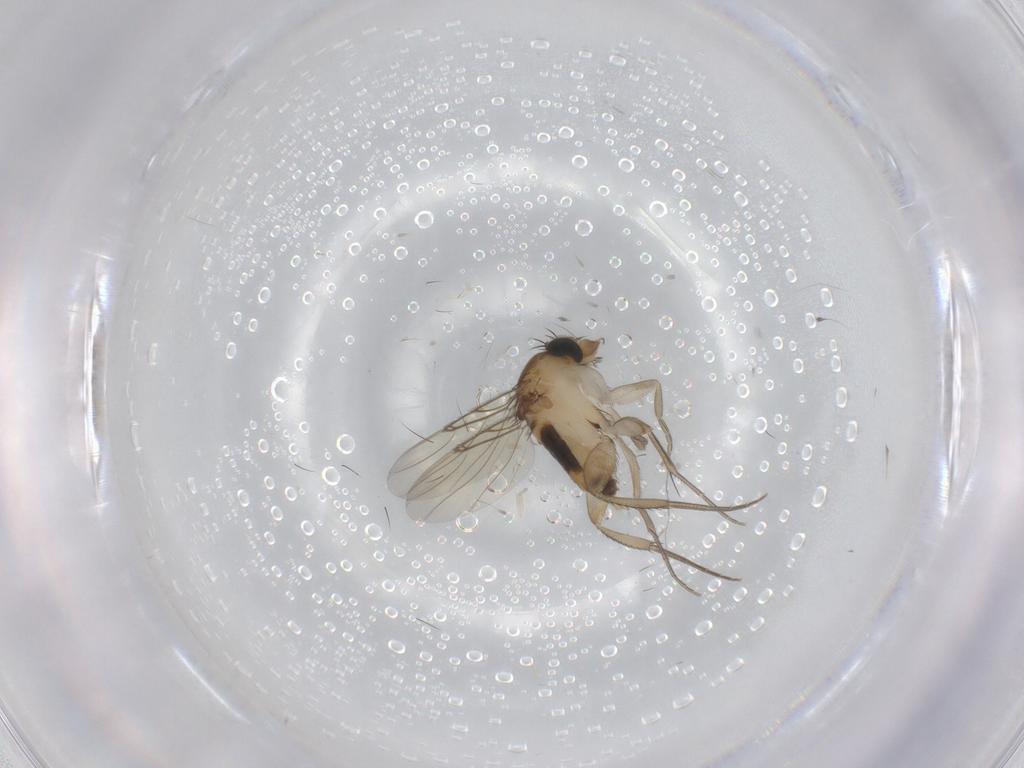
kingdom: Animalia
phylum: Arthropoda
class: Insecta
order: Diptera
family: Phoridae
